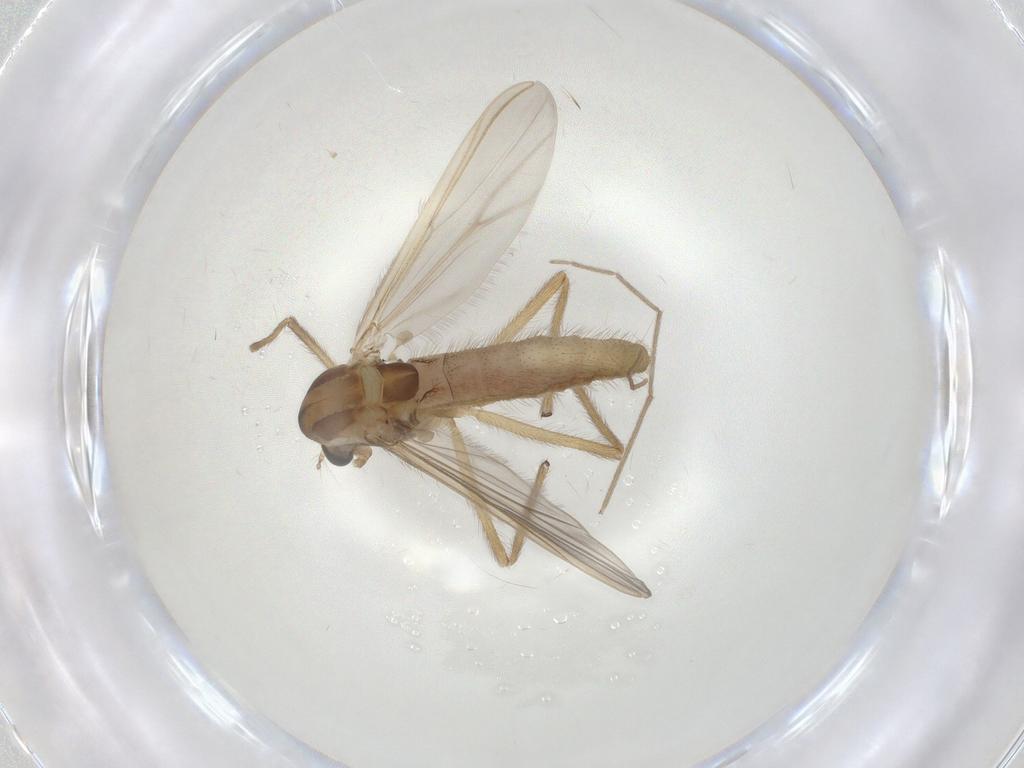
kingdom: Animalia
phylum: Arthropoda
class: Insecta
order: Diptera
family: Chironomidae
